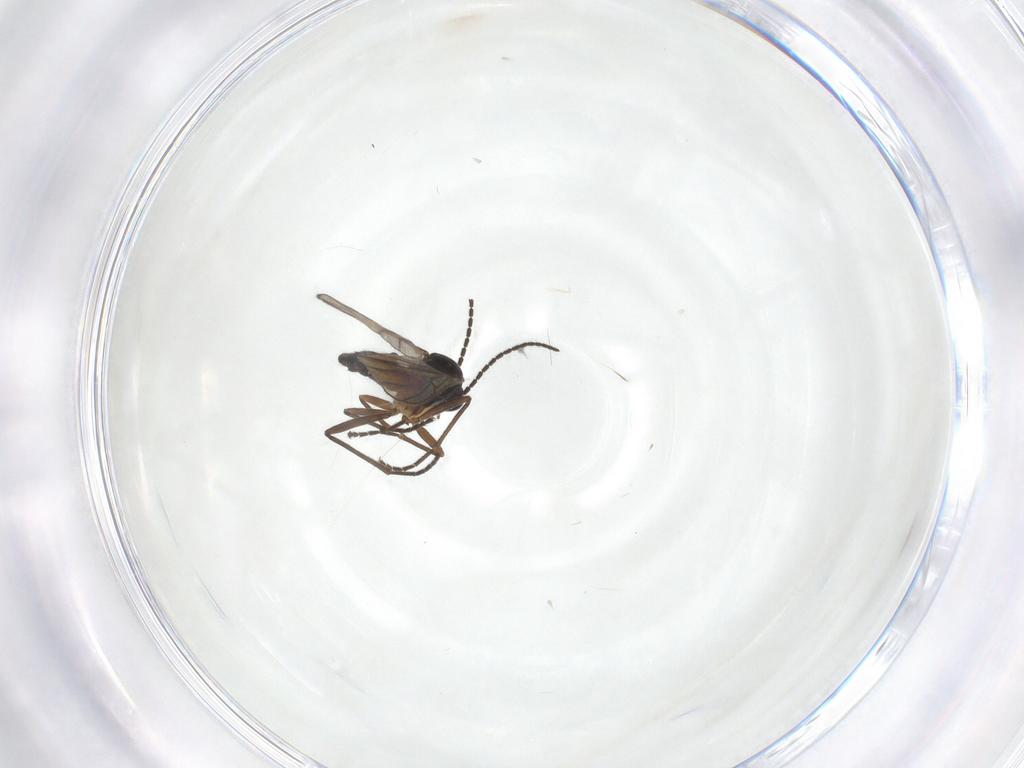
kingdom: Animalia
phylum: Arthropoda
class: Insecta
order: Diptera
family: Sciaridae
